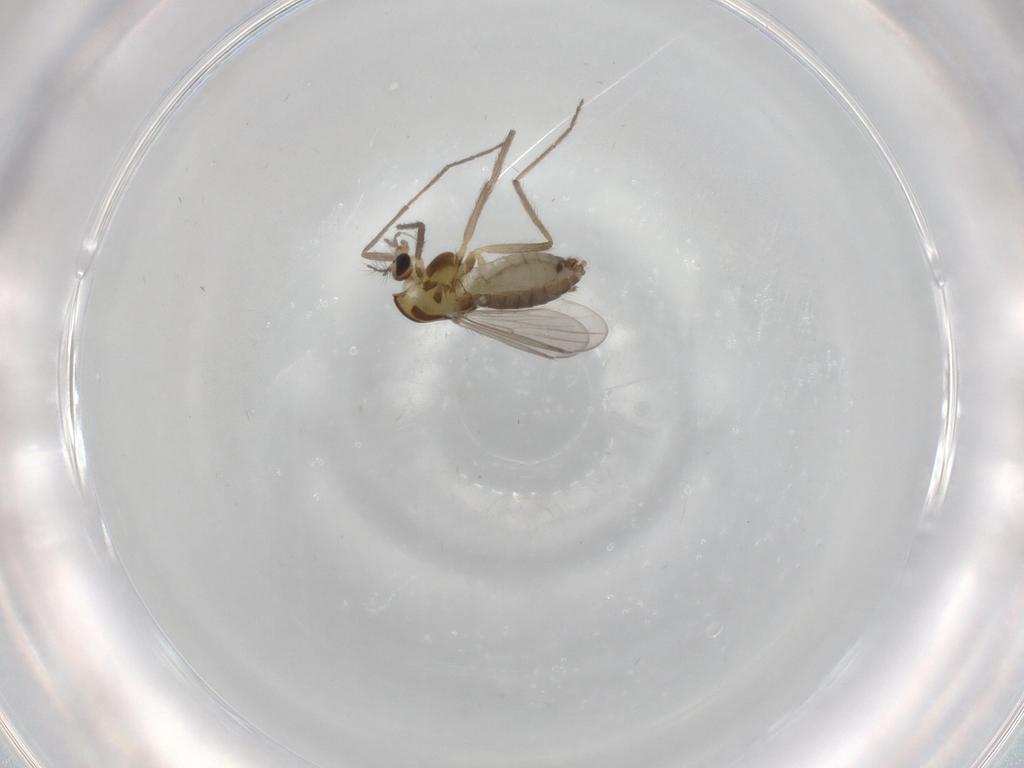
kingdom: Animalia
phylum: Arthropoda
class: Insecta
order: Diptera
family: Chironomidae
